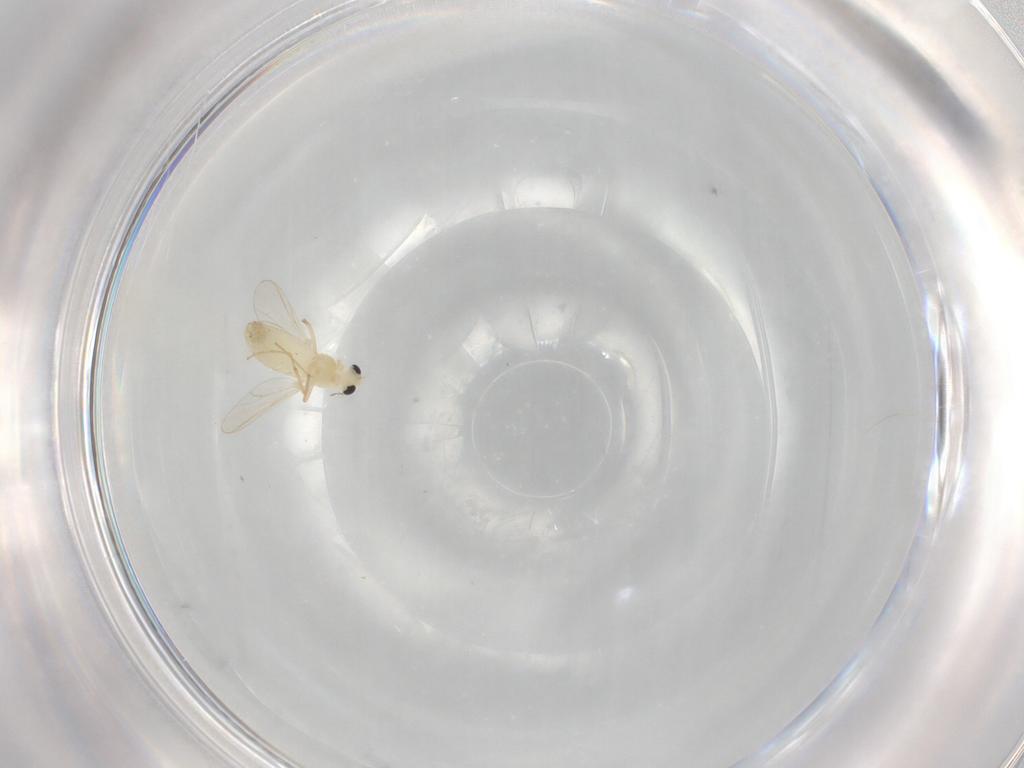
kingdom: Animalia
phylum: Arthropoda
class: Insecta
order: Diptera
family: Chironomidae
